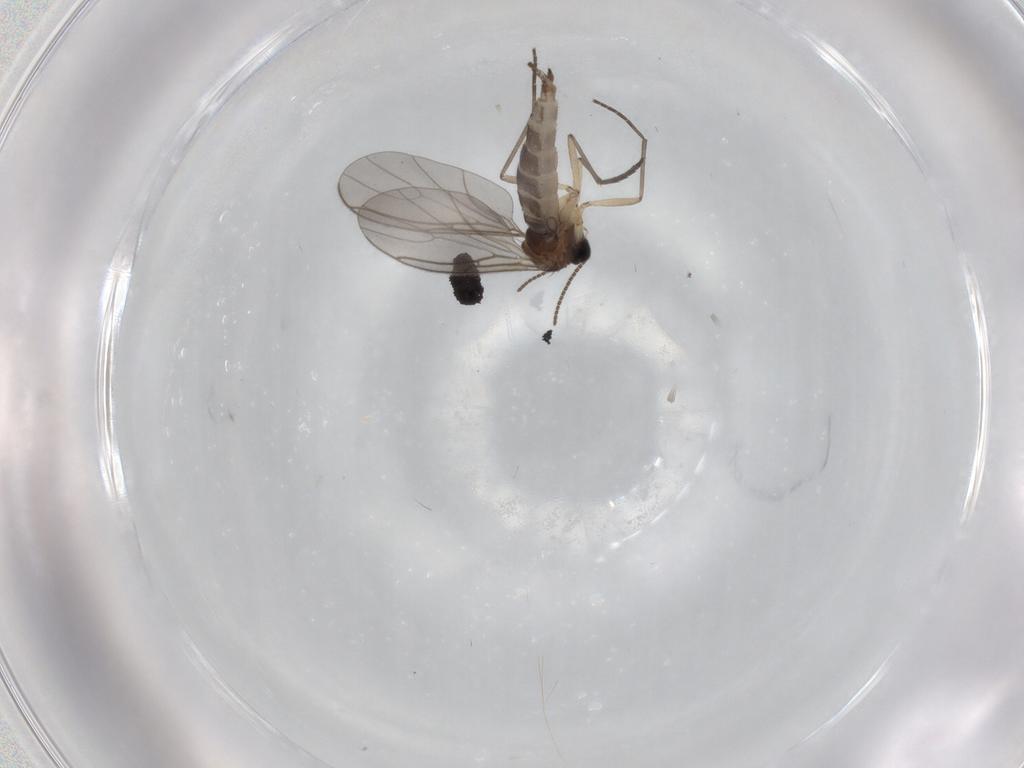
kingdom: Animalia
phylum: Arthropoda
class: Insecta
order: Diptera
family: Sciaridae
